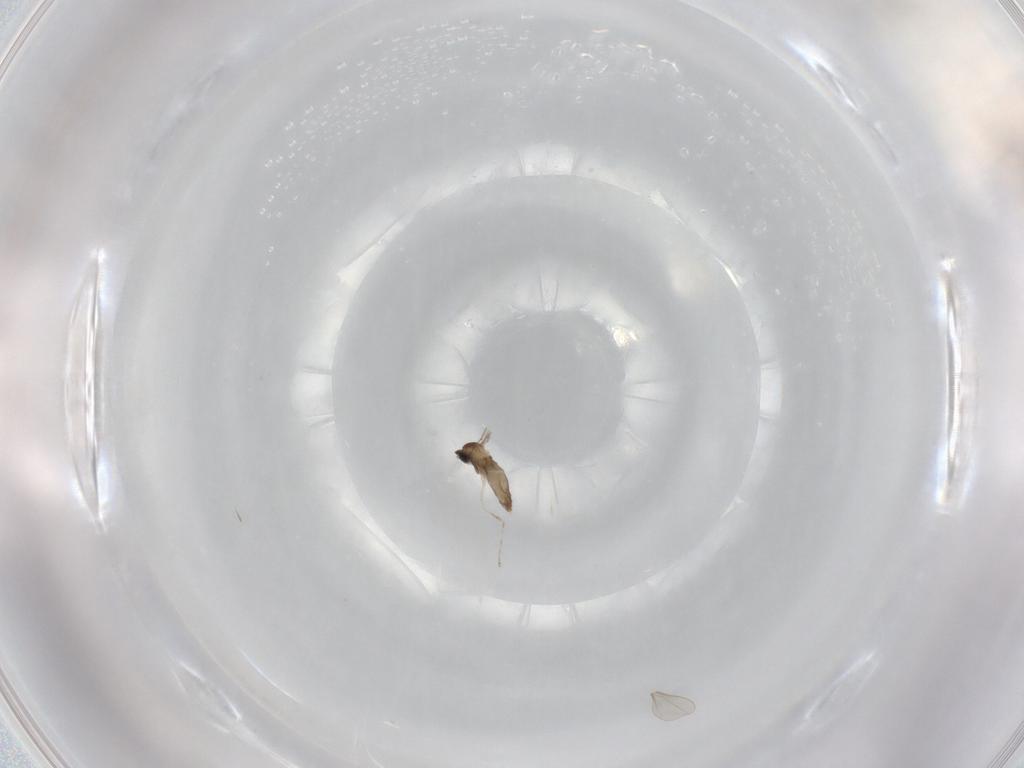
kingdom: Animalia
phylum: Arthropoda
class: Insecta
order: Diptera
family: Cecidomyiidae
